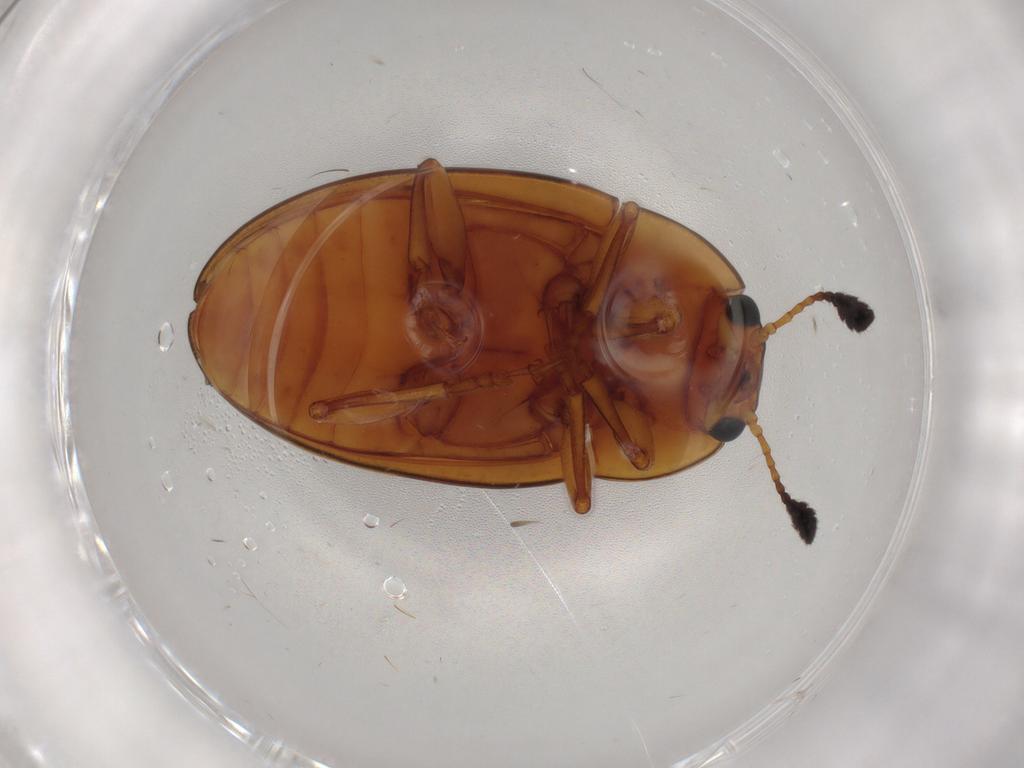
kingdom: Animalia
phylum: Arthropoda
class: Insecta
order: Coleoptera
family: Erotylidae
